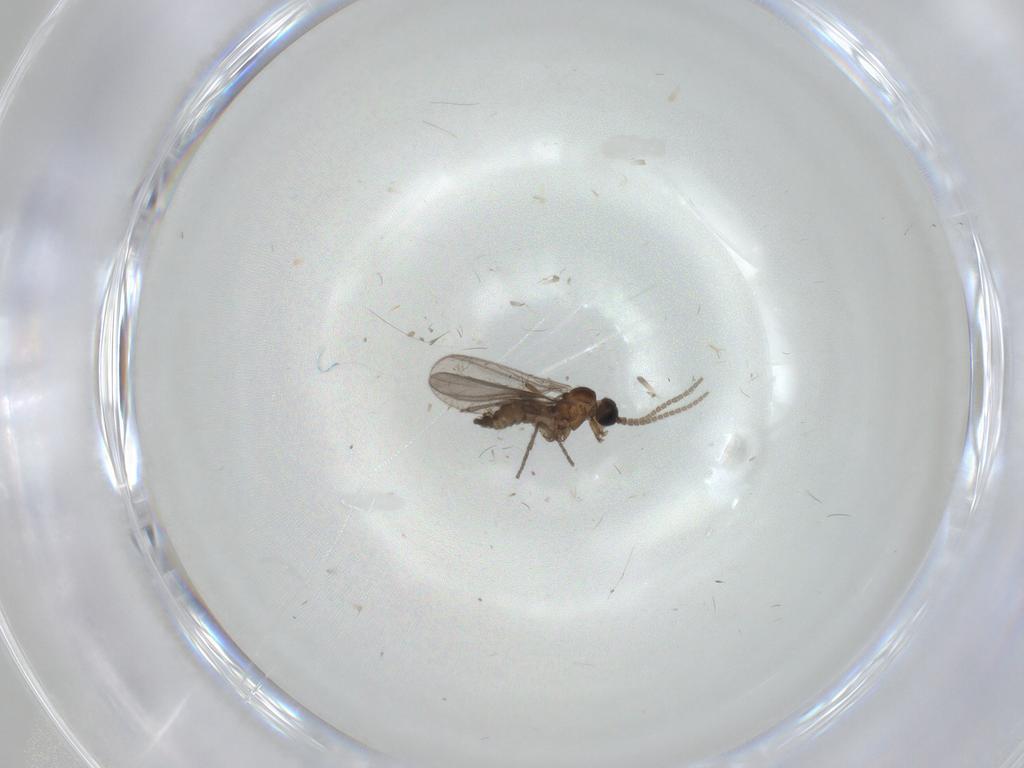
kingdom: Animalia
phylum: Arthropoda
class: Insecta
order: Diptera
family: Sciaridae
